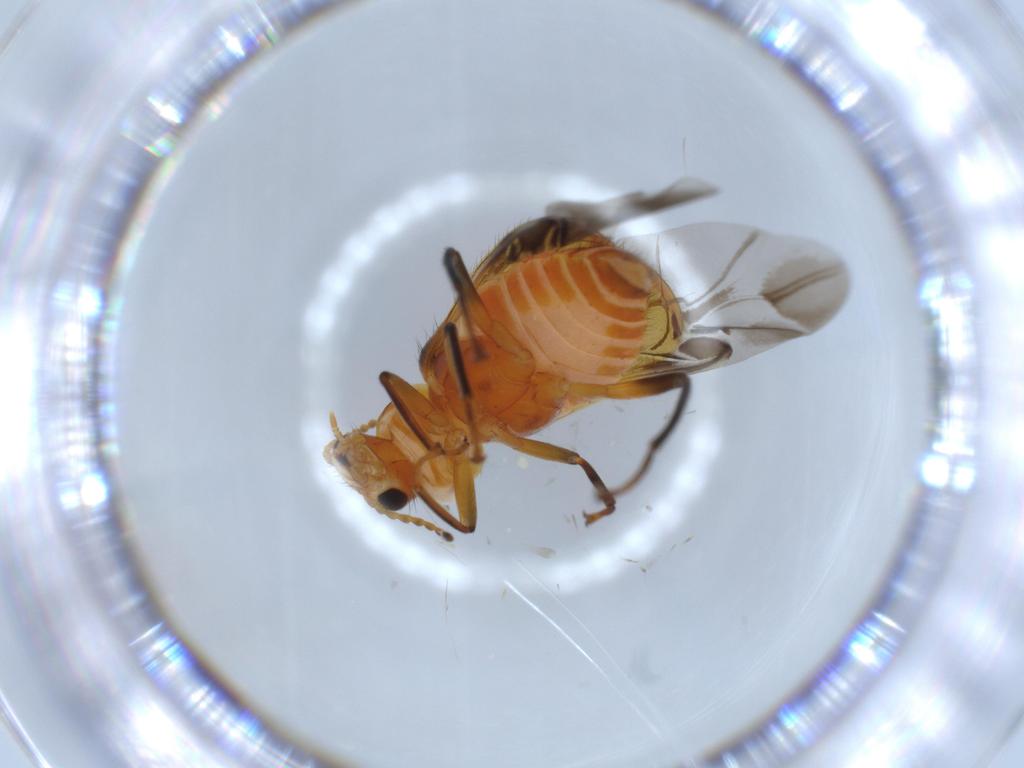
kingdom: Animalia
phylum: Arthropoda
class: Insecta
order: Coleoptera
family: Melyridae
